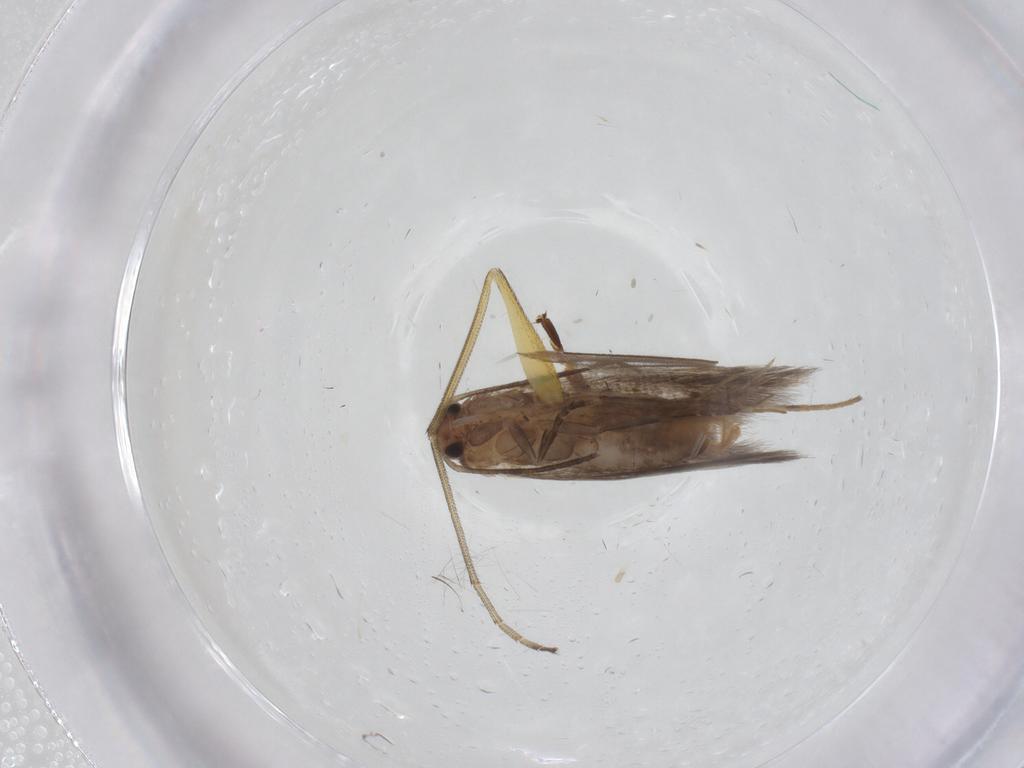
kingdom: Animalia
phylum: Arthropoda
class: Insecta
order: Lepidoptera
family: Elachistidae
